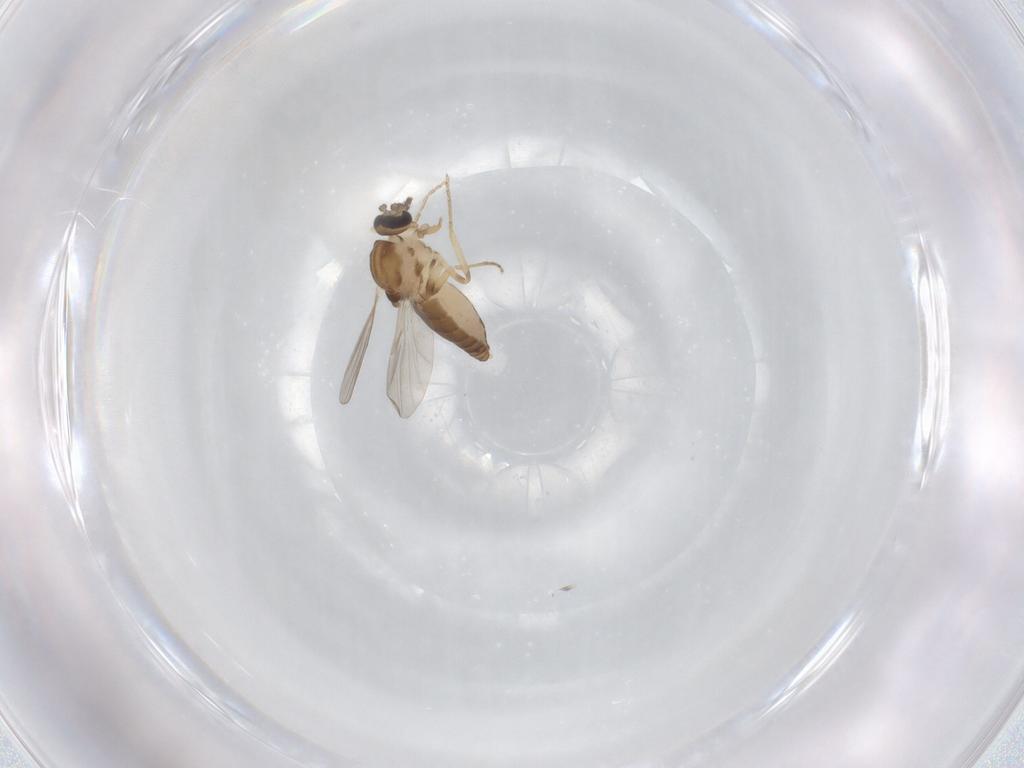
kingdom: Animalia
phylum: Arthropoda
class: Insecta
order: Diptera
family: Ceratopogonidae
